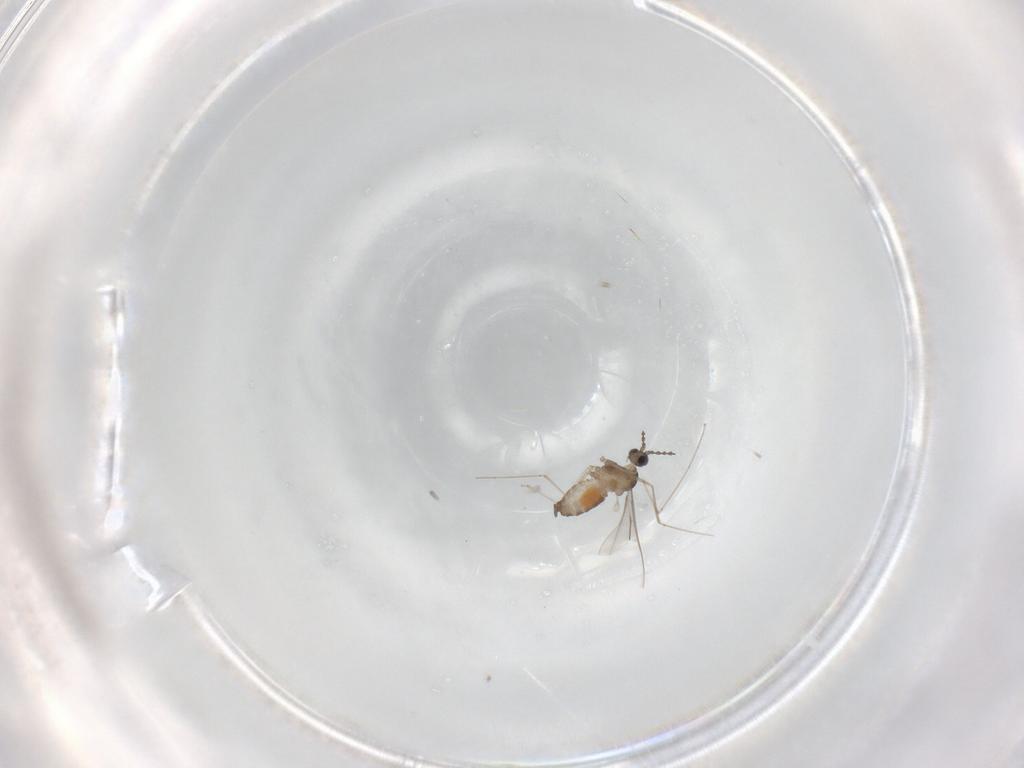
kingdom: Animalia
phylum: Arthropoda
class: Insecta
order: Diptera
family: Cecidomyiidae
